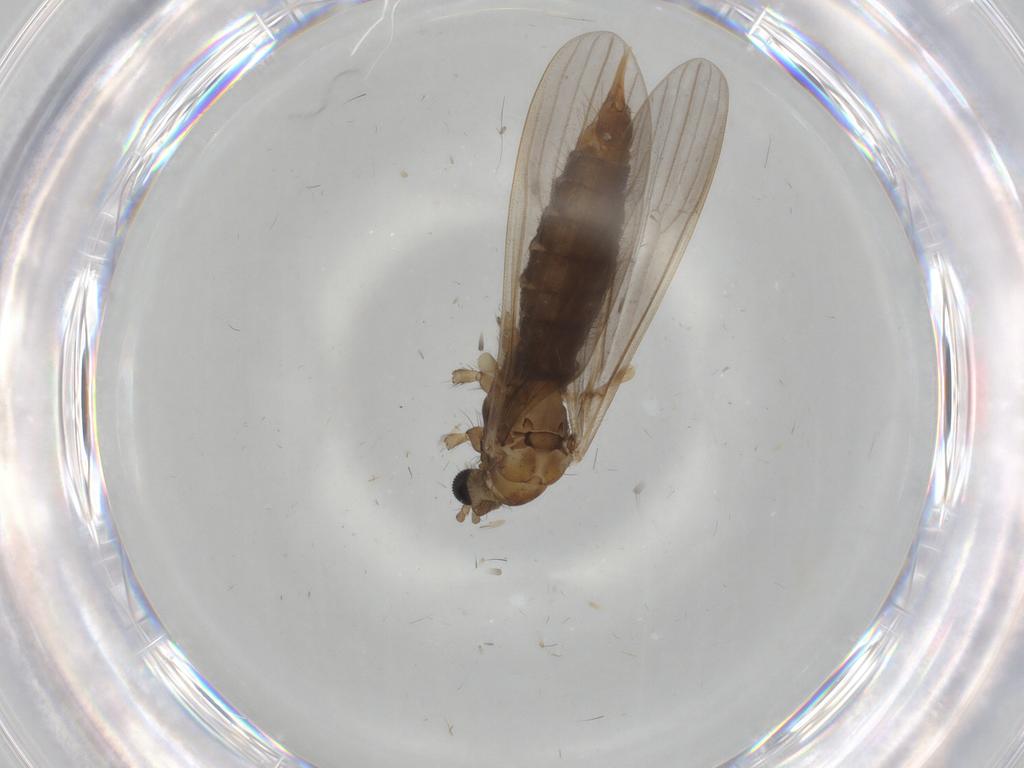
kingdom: Animalia
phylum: Arthropoda
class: Insecta
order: Diptera
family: Limoniidae
